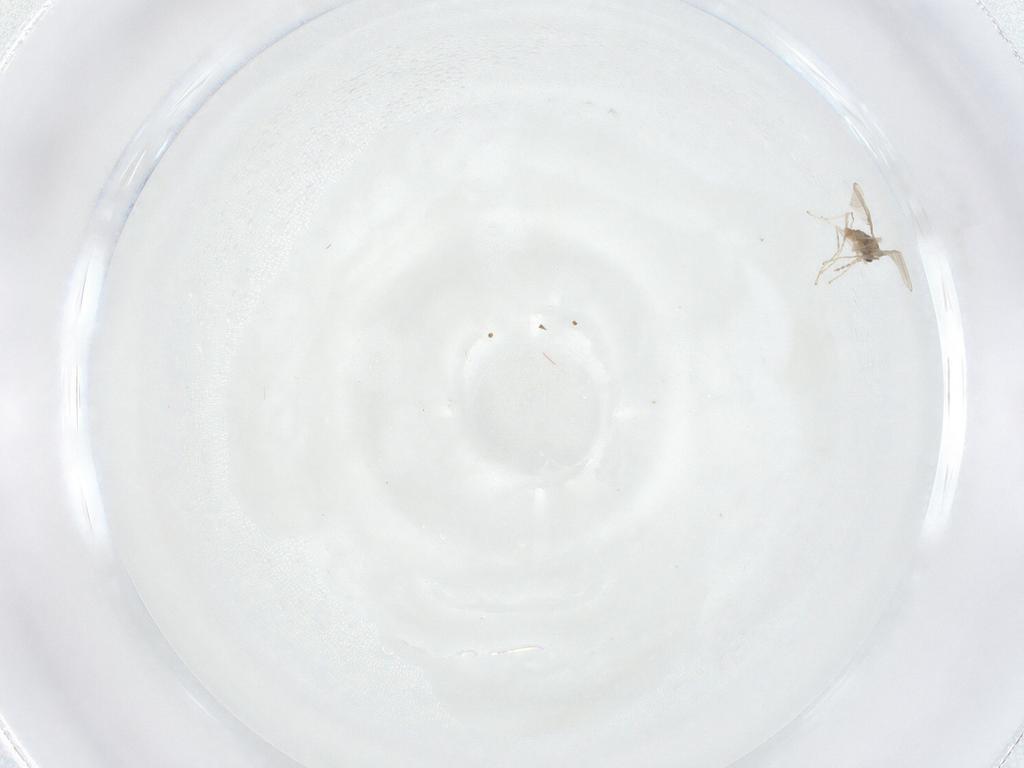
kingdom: Animalia
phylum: Arthropoda
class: Insecta
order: Diptera
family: Cecidomyiidae
